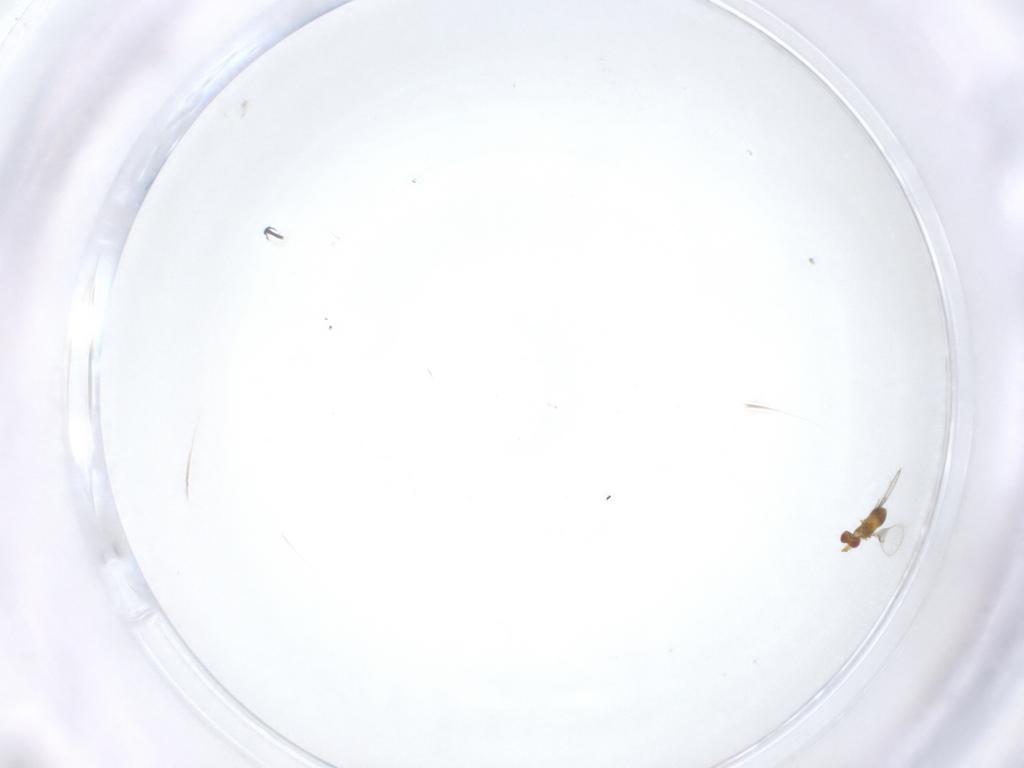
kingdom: Animalia
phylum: Arthropoda
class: Insecta
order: Hymenoptera
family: Trichogrammatidae
